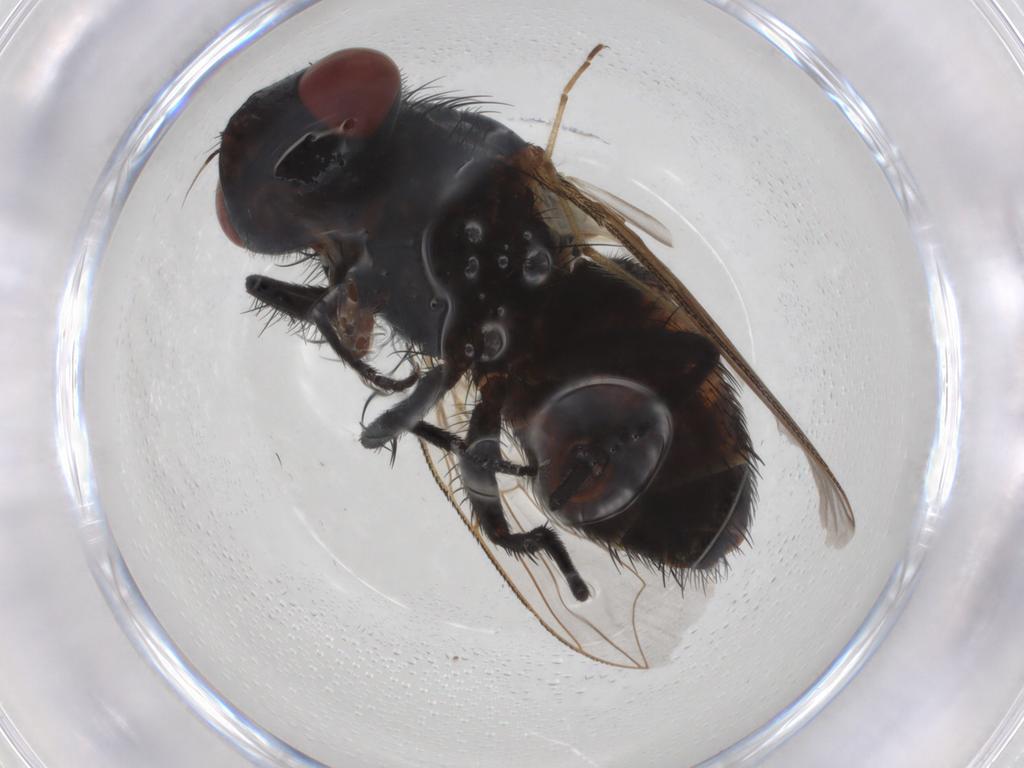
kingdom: Animalia
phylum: Arthropoda
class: Insecta
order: Diptera
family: Sarcophagidae
